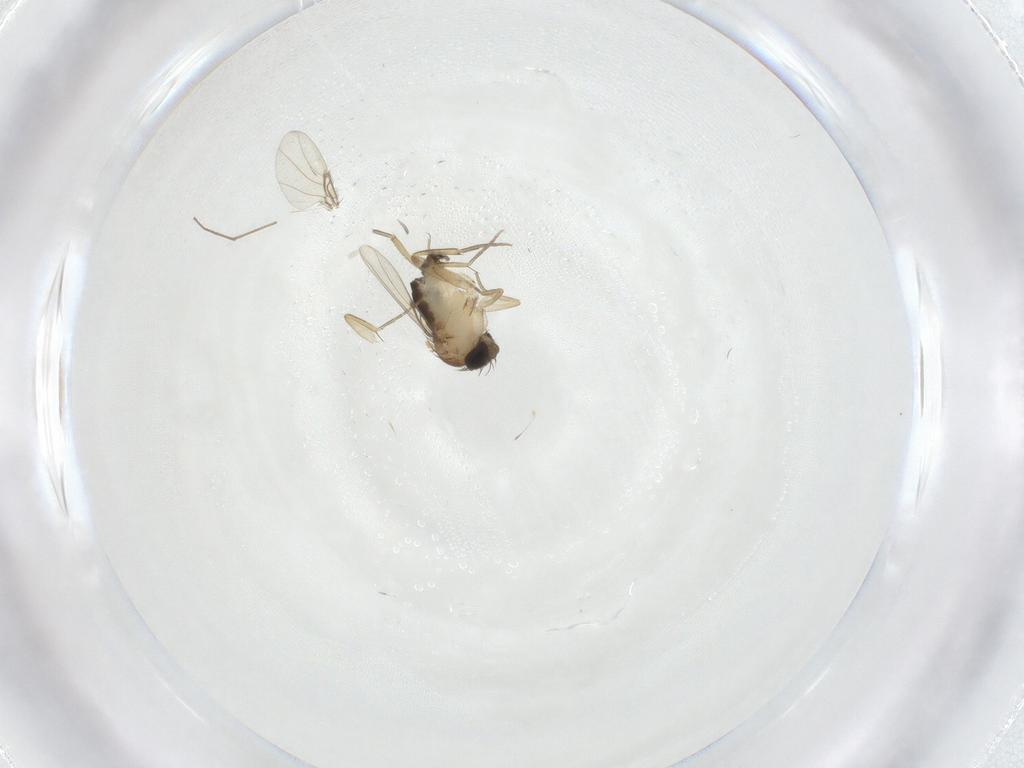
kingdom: Animalia
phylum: Arthropoda
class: Insecta
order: Diptera
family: Phoridae
